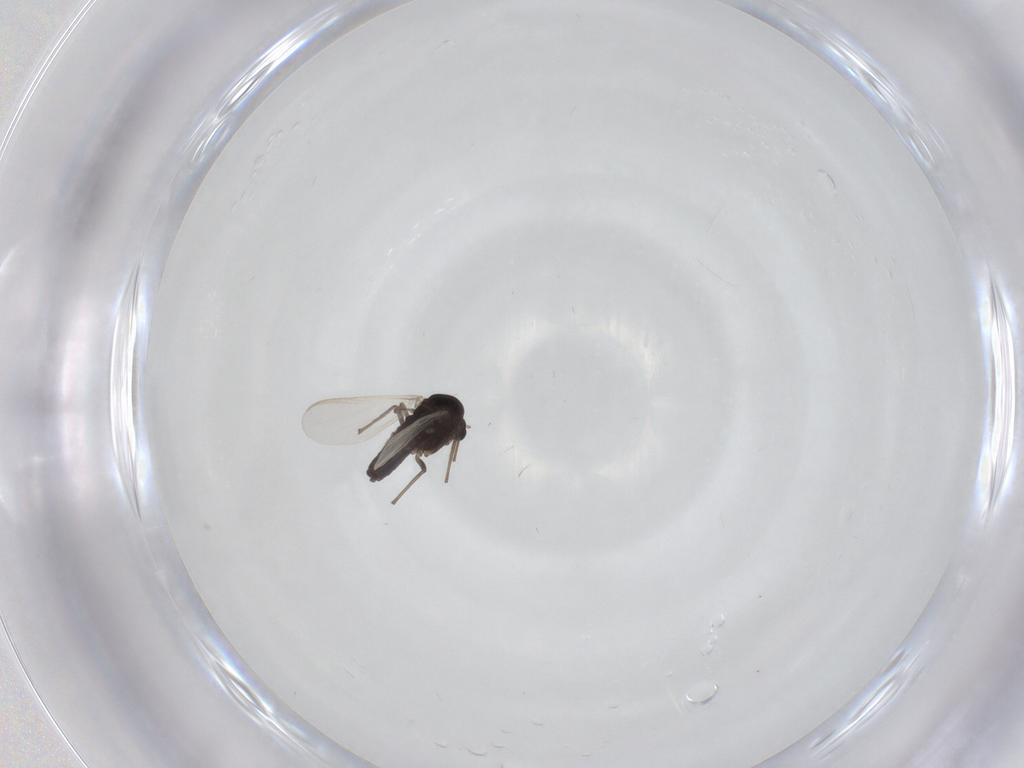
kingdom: Animalia
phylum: Arthropoda
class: Insecta
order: Diptera
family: Chironomidae
